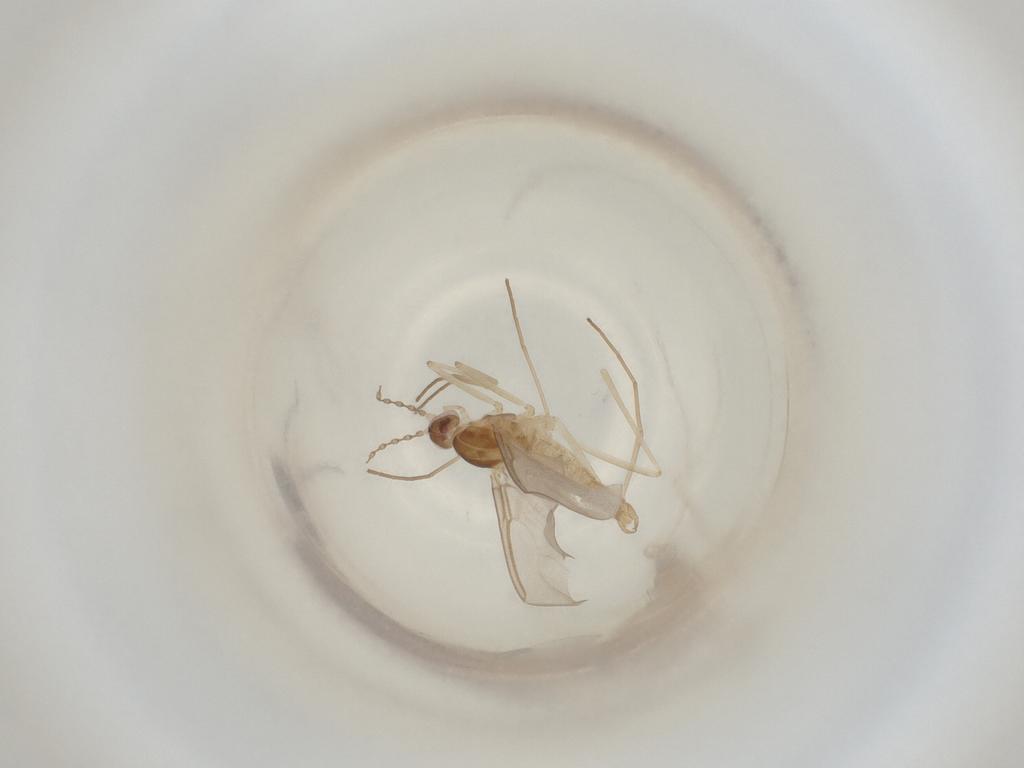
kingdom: Animalia
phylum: Arthropoda
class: Insecta
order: Diptera
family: Cecidomyiidae
